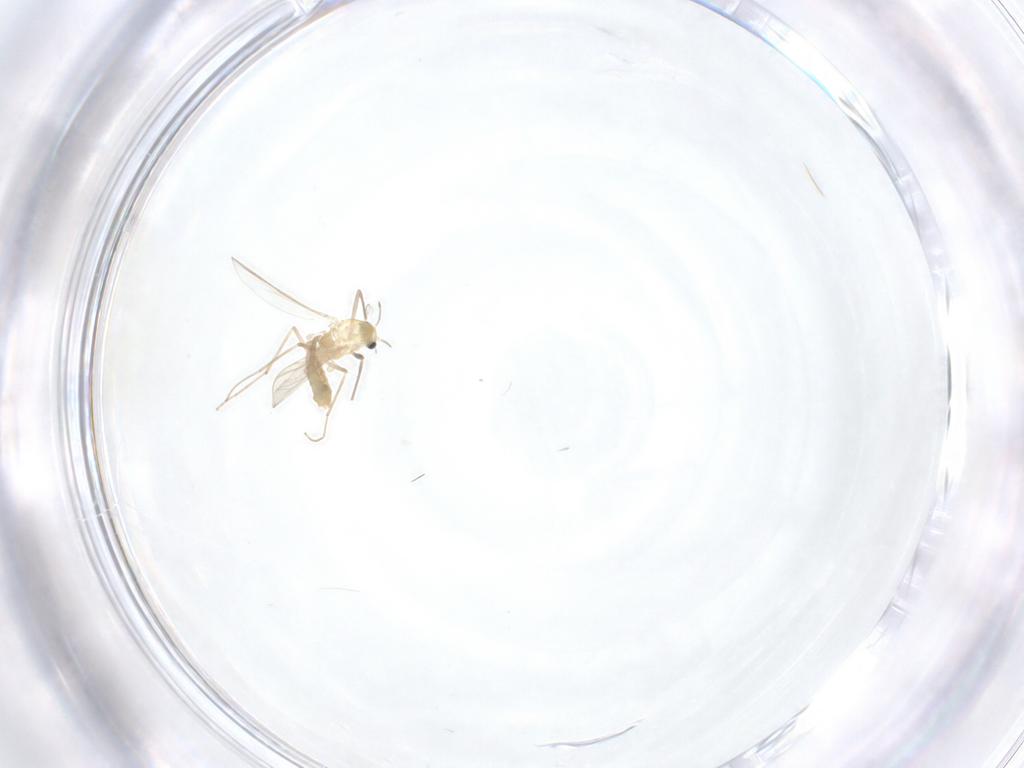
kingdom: Animalia
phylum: Arthropoda
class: Insecta
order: Diptera
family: Chironomidae
